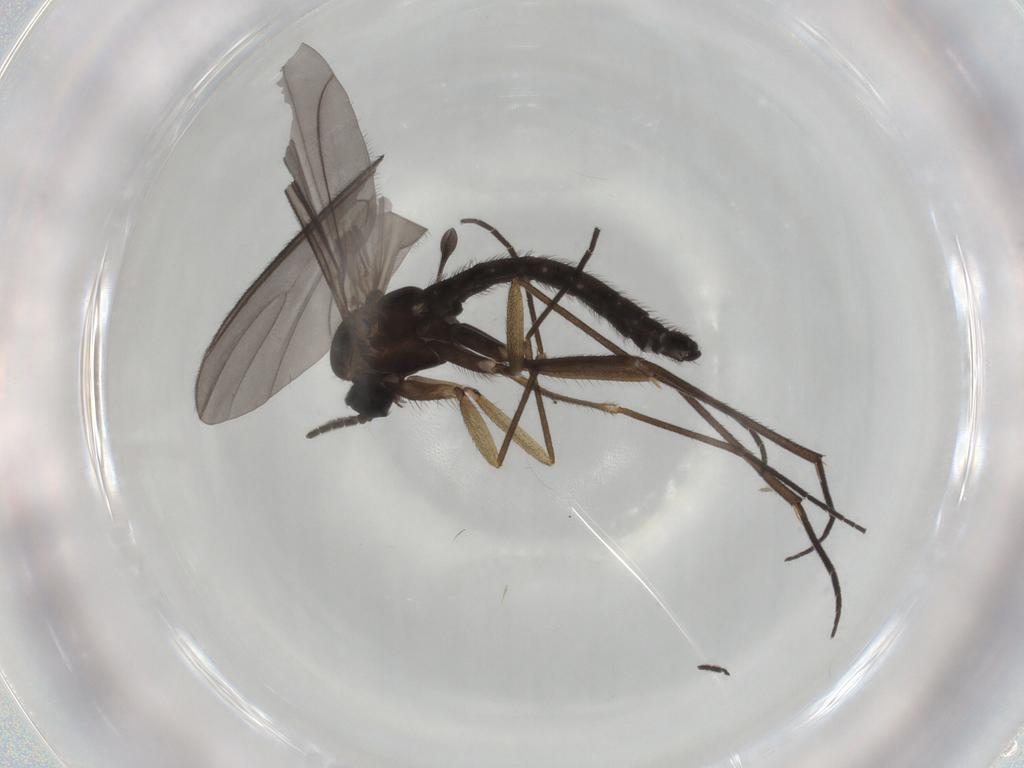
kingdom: Animalia
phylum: Arthropoda
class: Insecta
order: Diptera
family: Sciaridae
